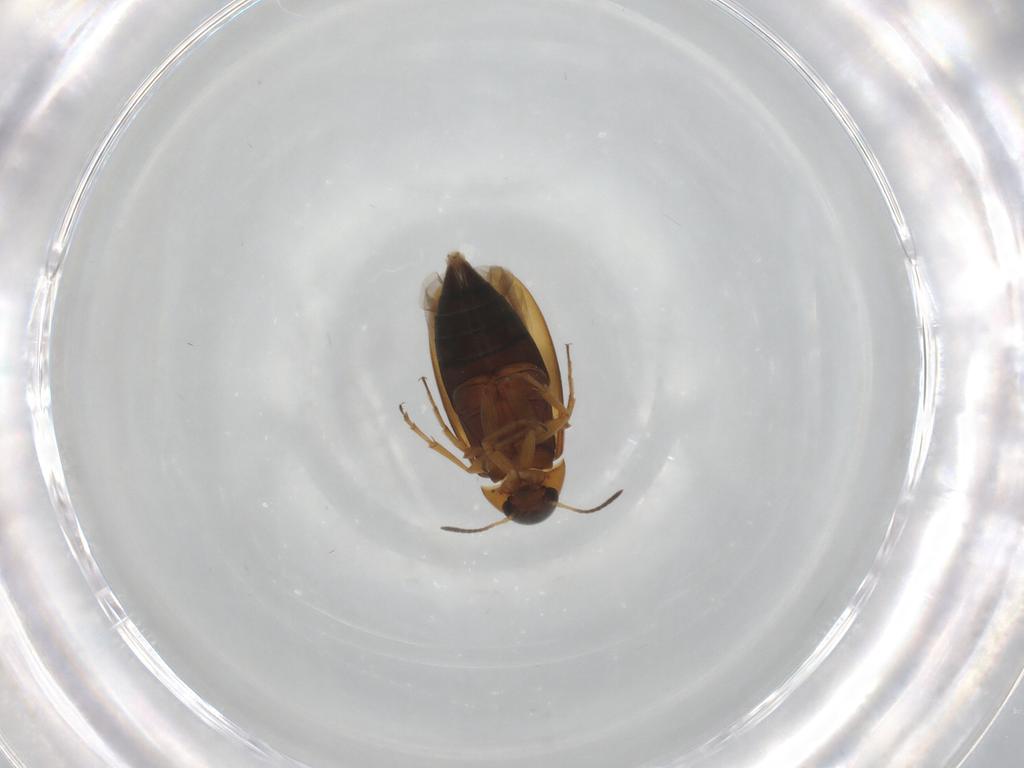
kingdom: Animalia
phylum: Arthropoda
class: Insecta
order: Coleoptera
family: Scraptiidae
